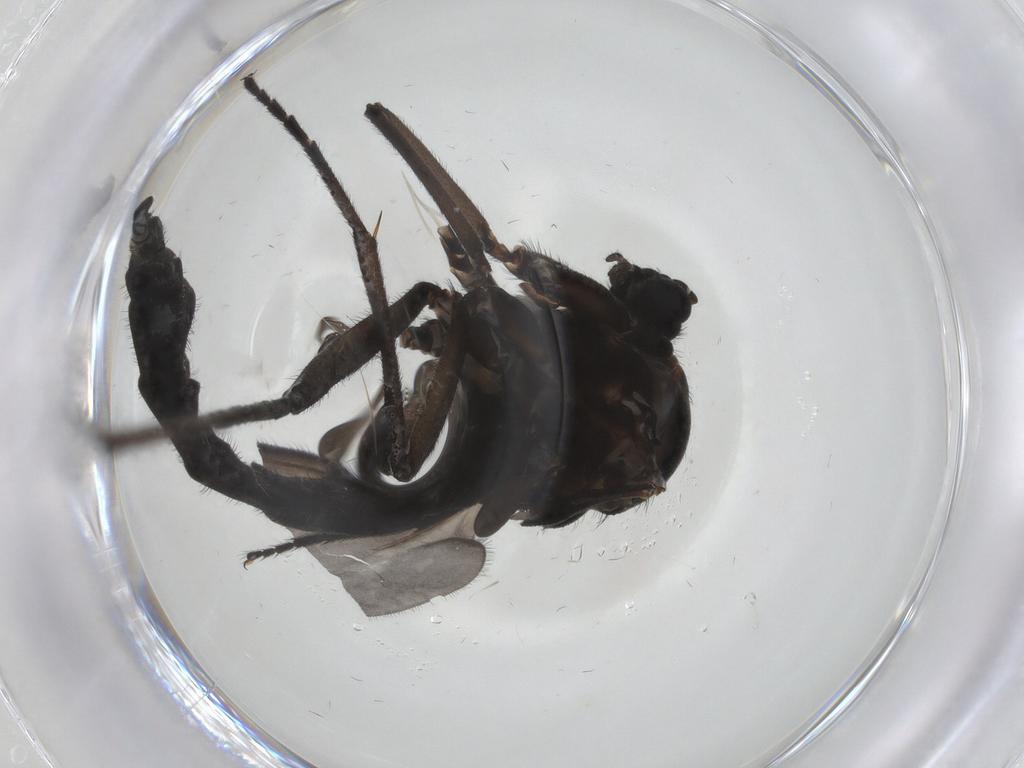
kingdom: Animalia
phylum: Arthropoda
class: Insecta
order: Diptera
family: Sciaridae
